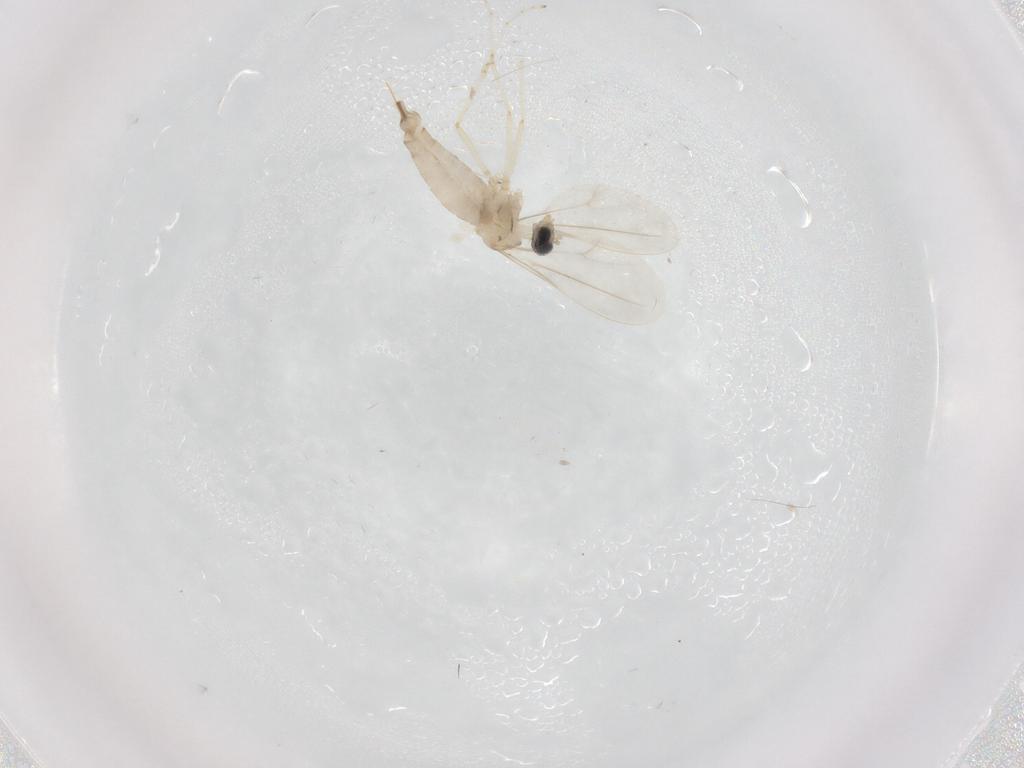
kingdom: Animalia
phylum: Arthropoda
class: Insecta
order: Diptera
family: Cecidomyiidae
